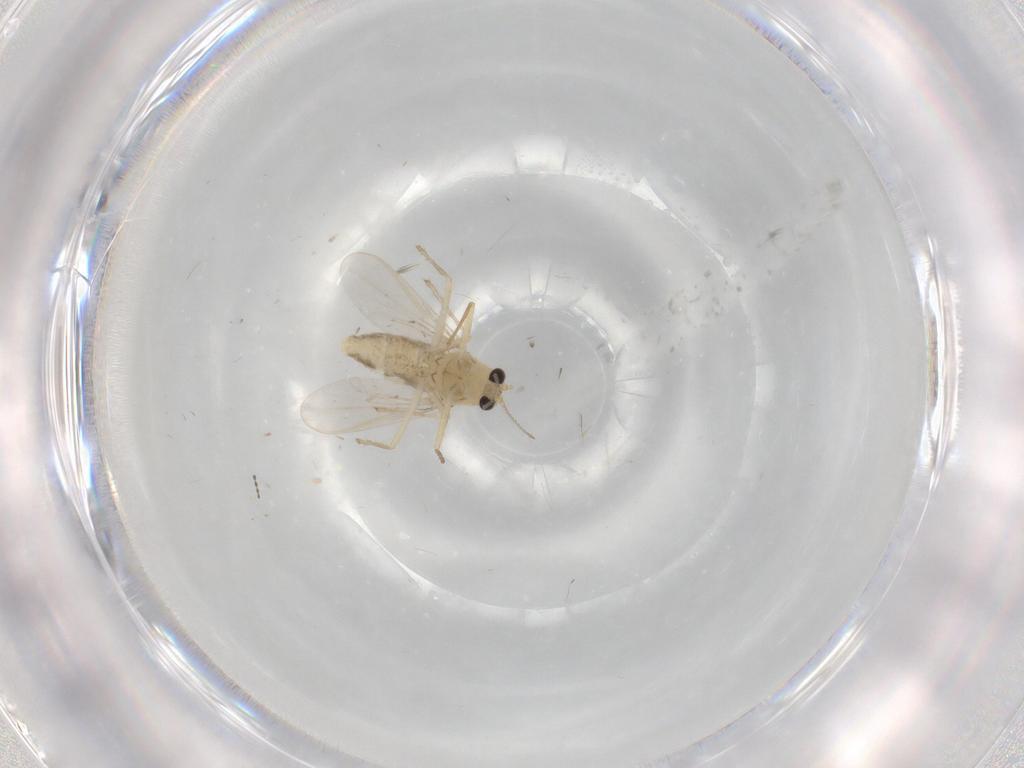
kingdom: Animalia
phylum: Arthropoda
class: Insecta
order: Diptera
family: Chironomidae
